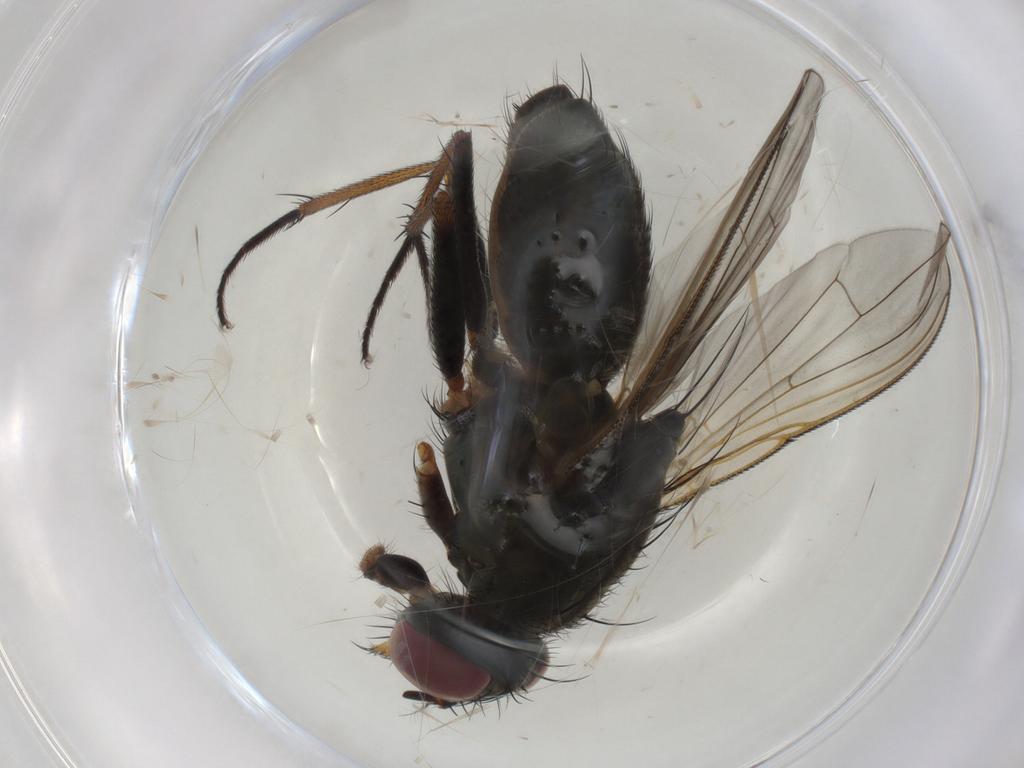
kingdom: Animalia
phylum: Arthropoda
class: Insecta
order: Diptera
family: Muscidae
